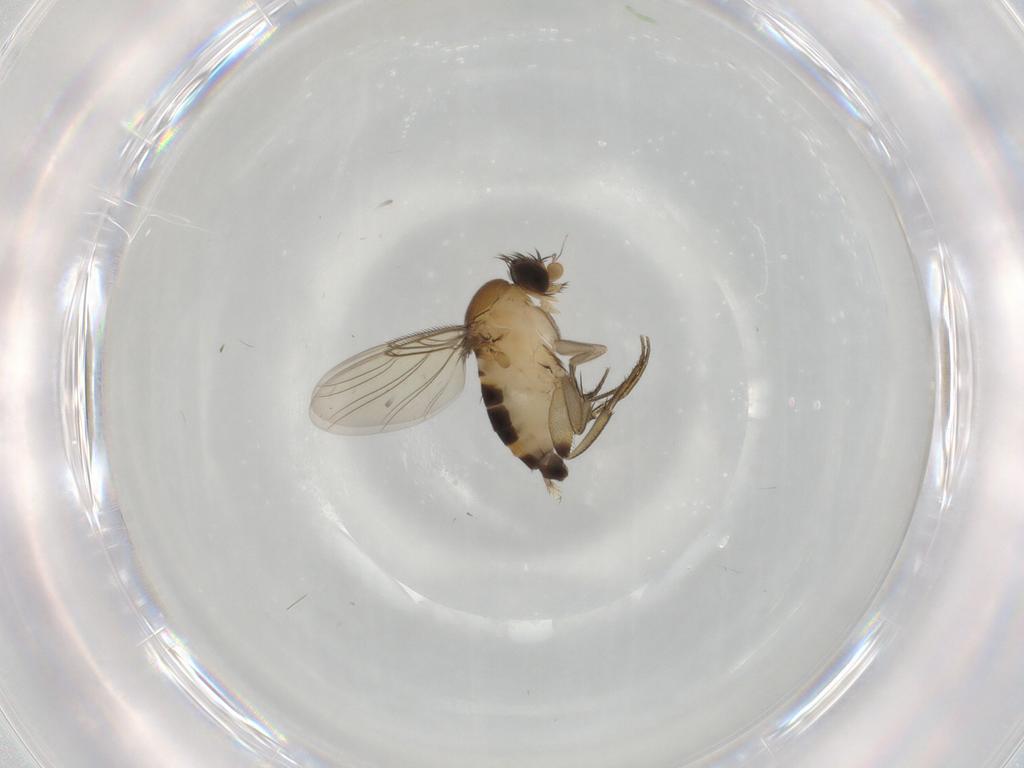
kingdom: Animalia
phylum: Arthropoda
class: Insecta
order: Diptera
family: Phoridae
